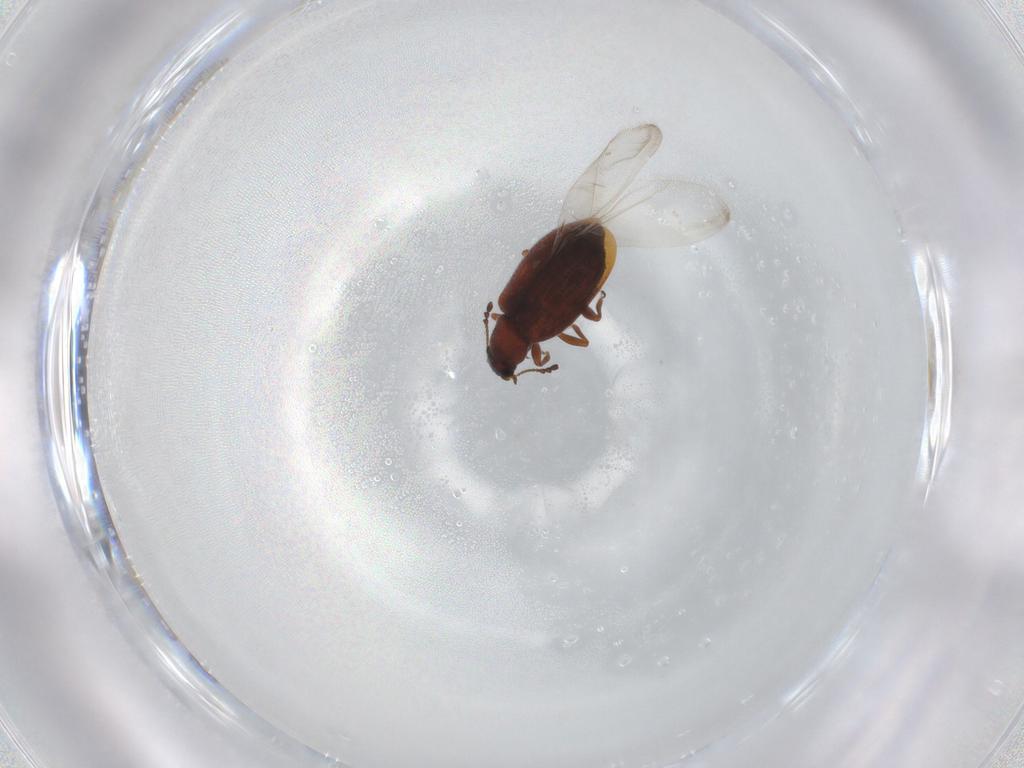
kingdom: Animalia
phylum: Arthropoda
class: Insecta
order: Coleoptera
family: Latridiidae
